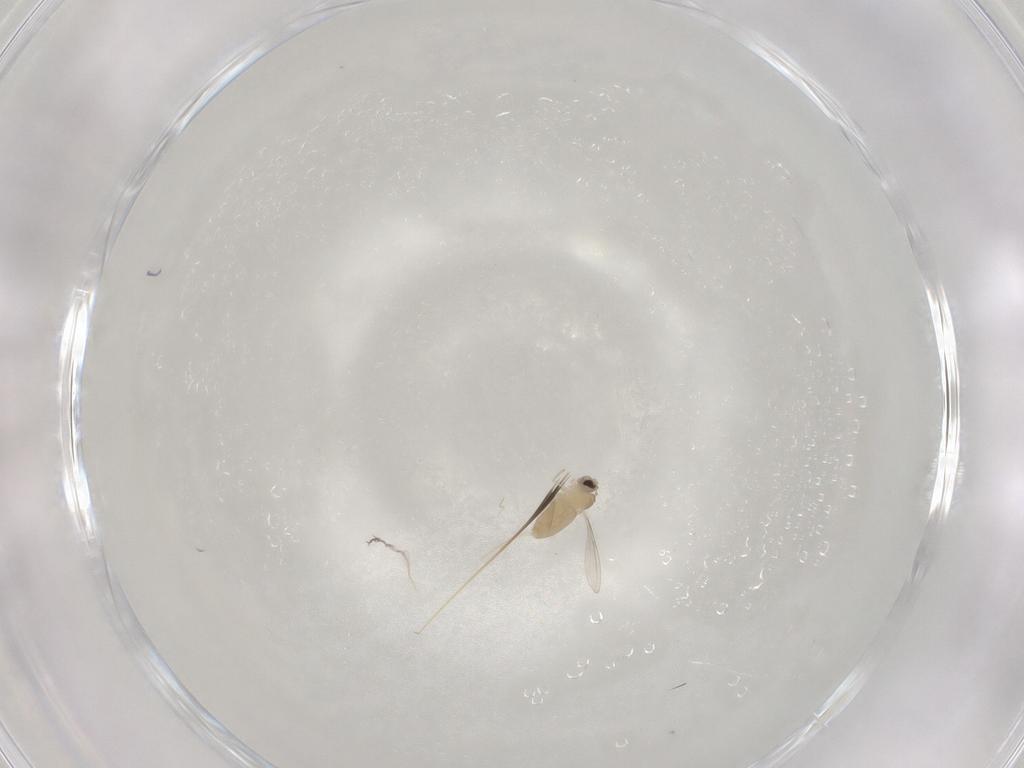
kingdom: Animalia
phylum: Arthropoda
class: Insecta
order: Diptera
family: Cecidomyiidae
